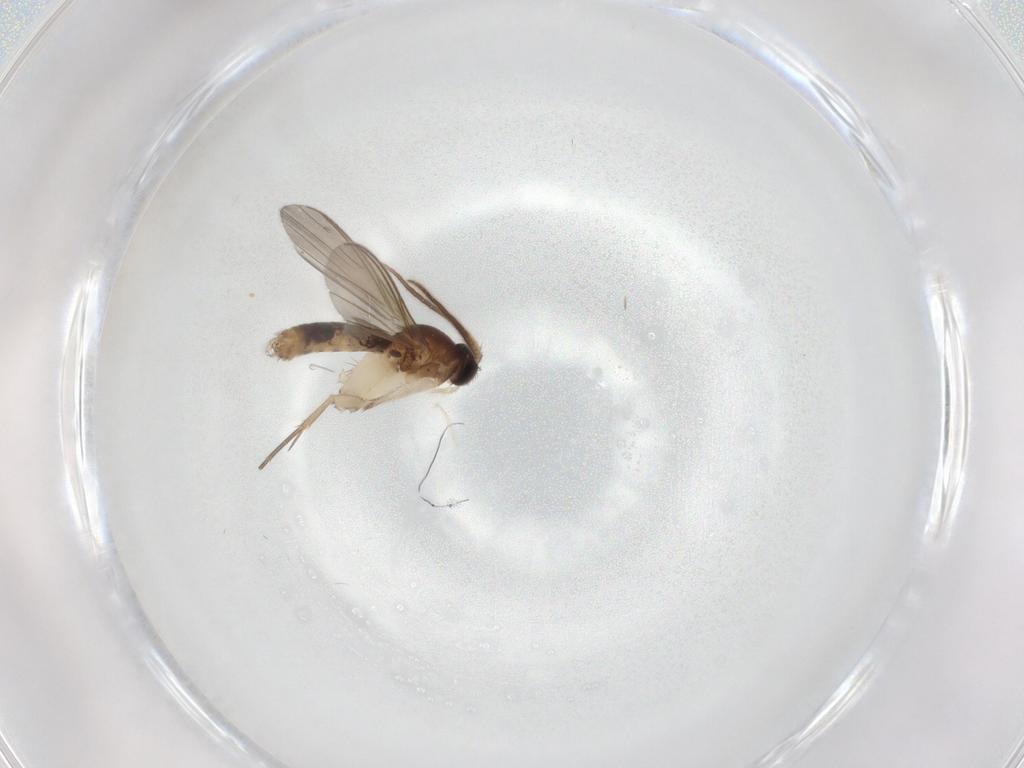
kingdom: Animalia
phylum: Arthropoda
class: Insecta
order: Diptera
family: Mycetophilidae
